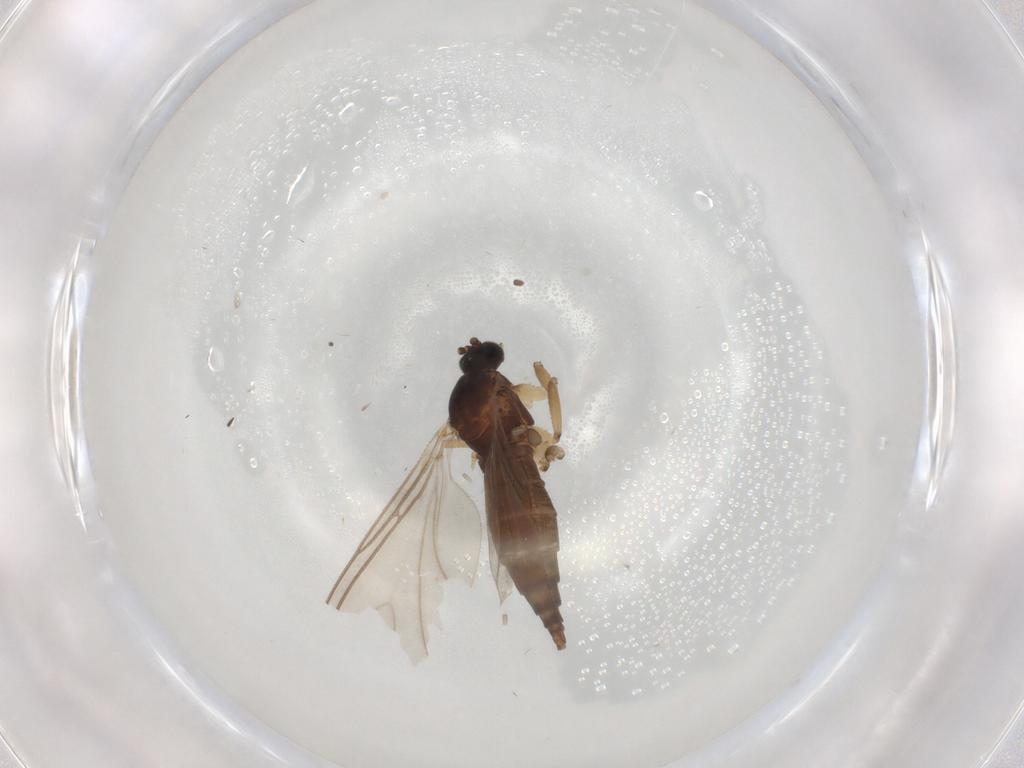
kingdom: Animalia
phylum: Arthropoda
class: Insecta
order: Diptera
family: Sciaridae
